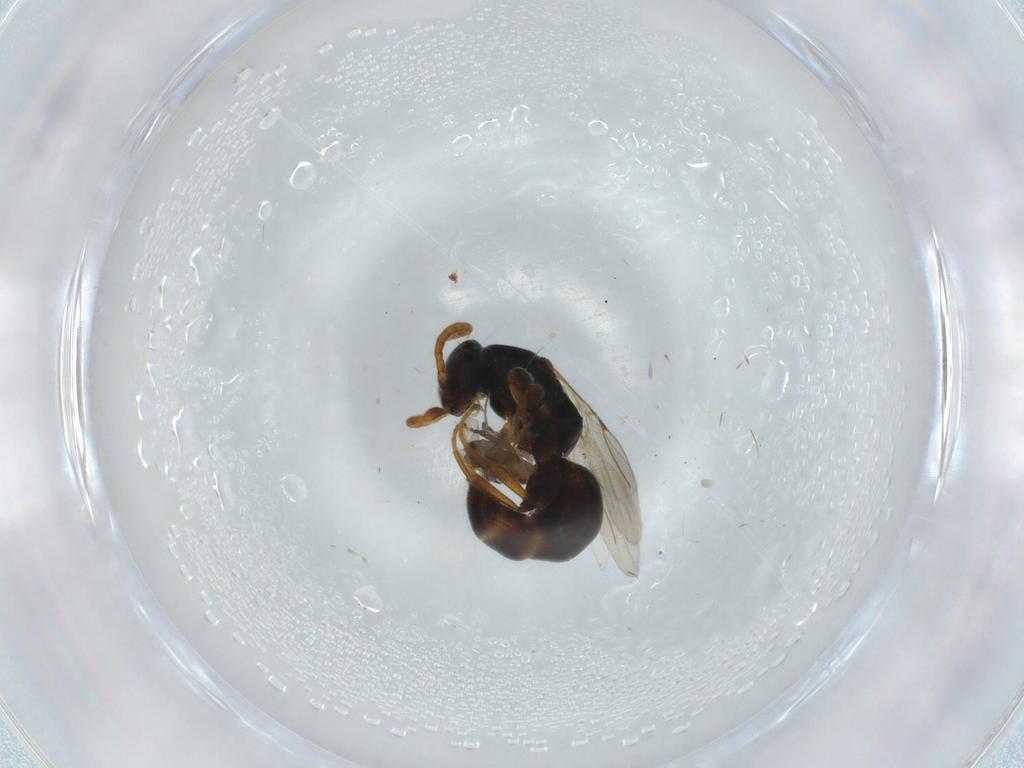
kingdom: Animalia
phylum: Arthropoda
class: Insecta
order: Hymenoptera
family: Bethylidae
